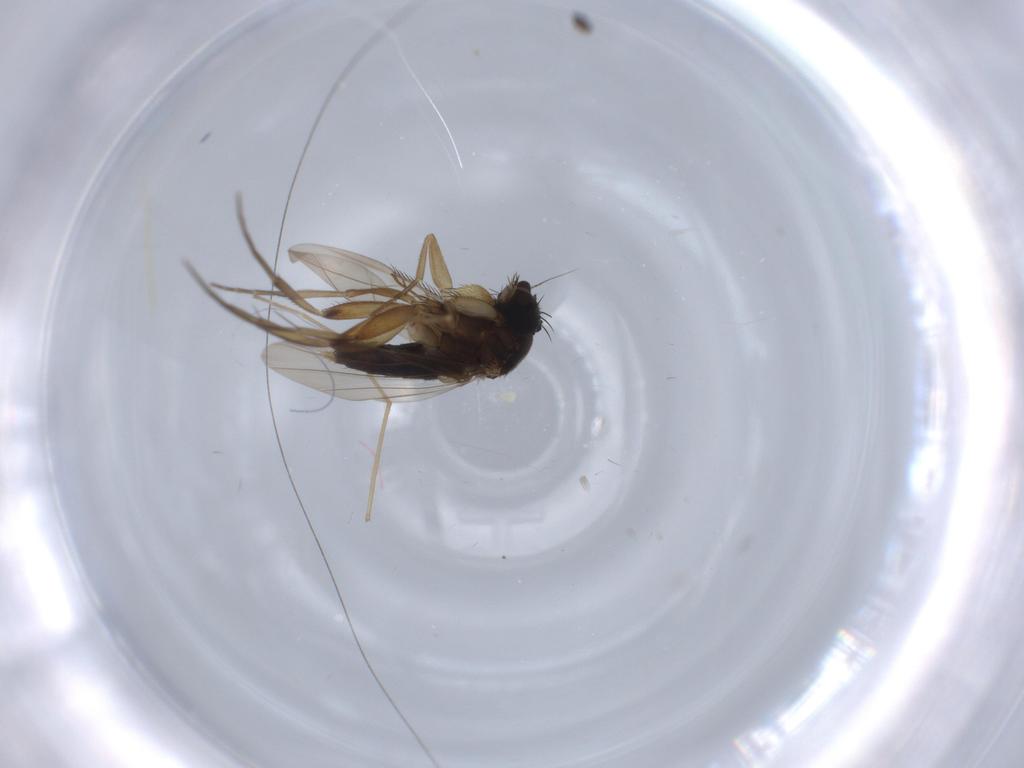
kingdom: Animalia
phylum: Arthropoda
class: Insecta
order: Diptera
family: Phoridae
